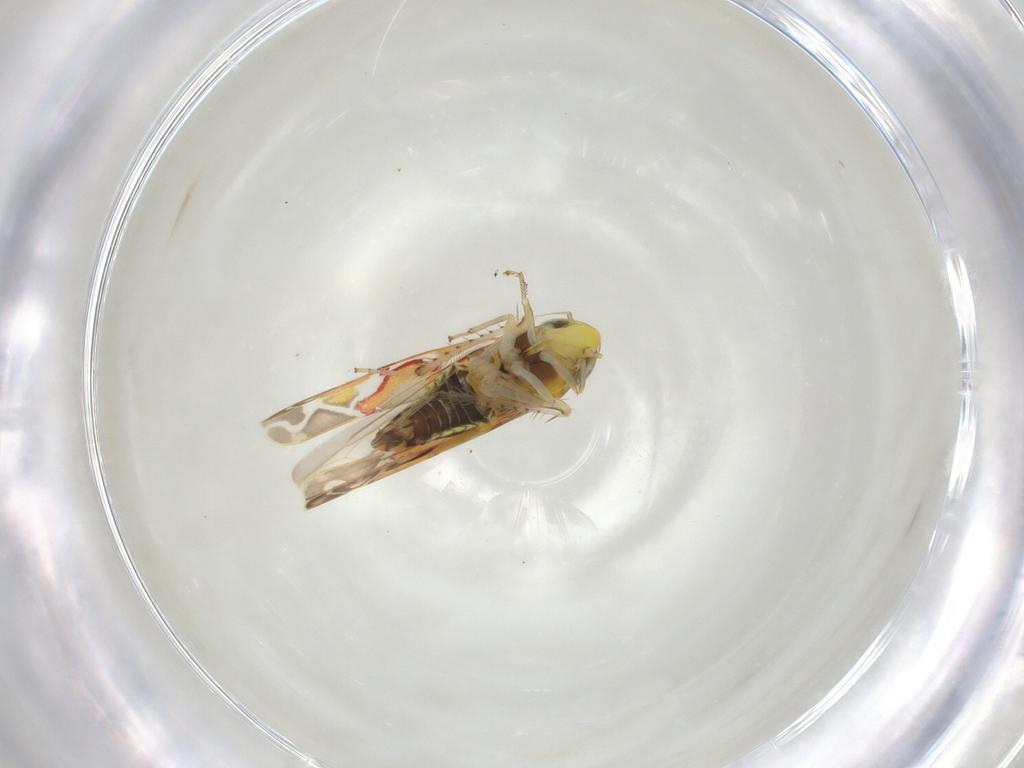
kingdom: Animalia
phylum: Arthropoda
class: Insecta
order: Hemiptera
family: Cicadellidae
